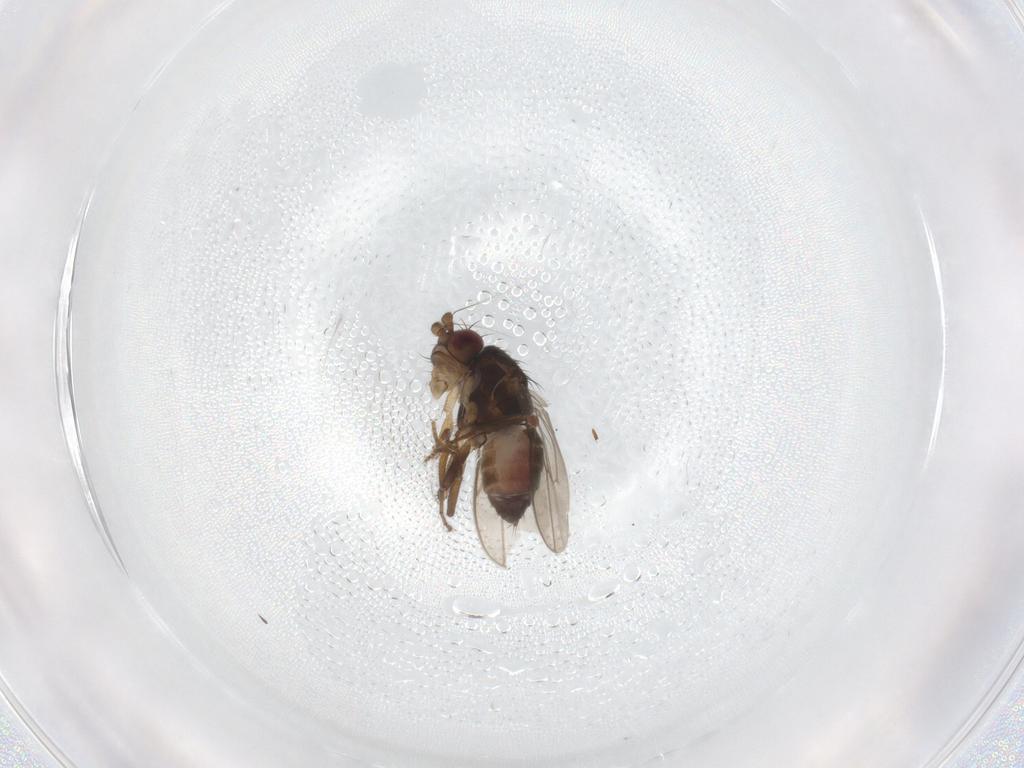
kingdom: Animalia
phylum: Arthropoda
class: Insecta
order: Diptera
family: Sphaeroceridae
